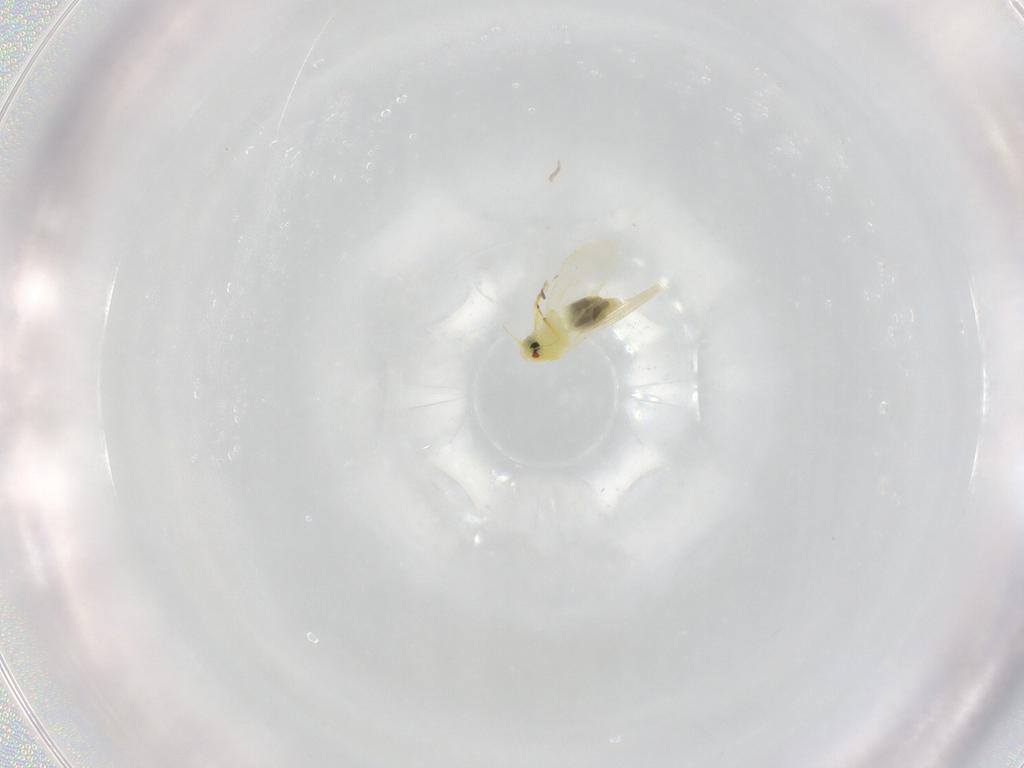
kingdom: Animalia
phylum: Arthropoda
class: Insecta
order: Hemiptera
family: Aleyrodidae
